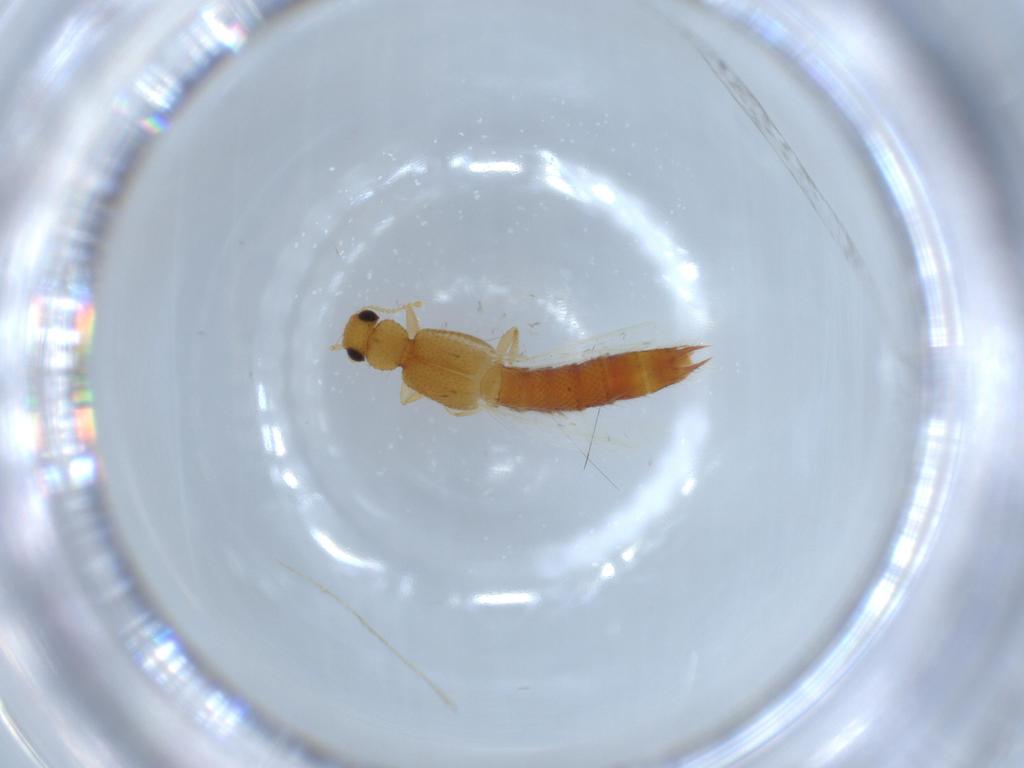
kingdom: Animalia
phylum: Arthropoda
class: Insecta
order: Coleoptera
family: Staphylinidae
